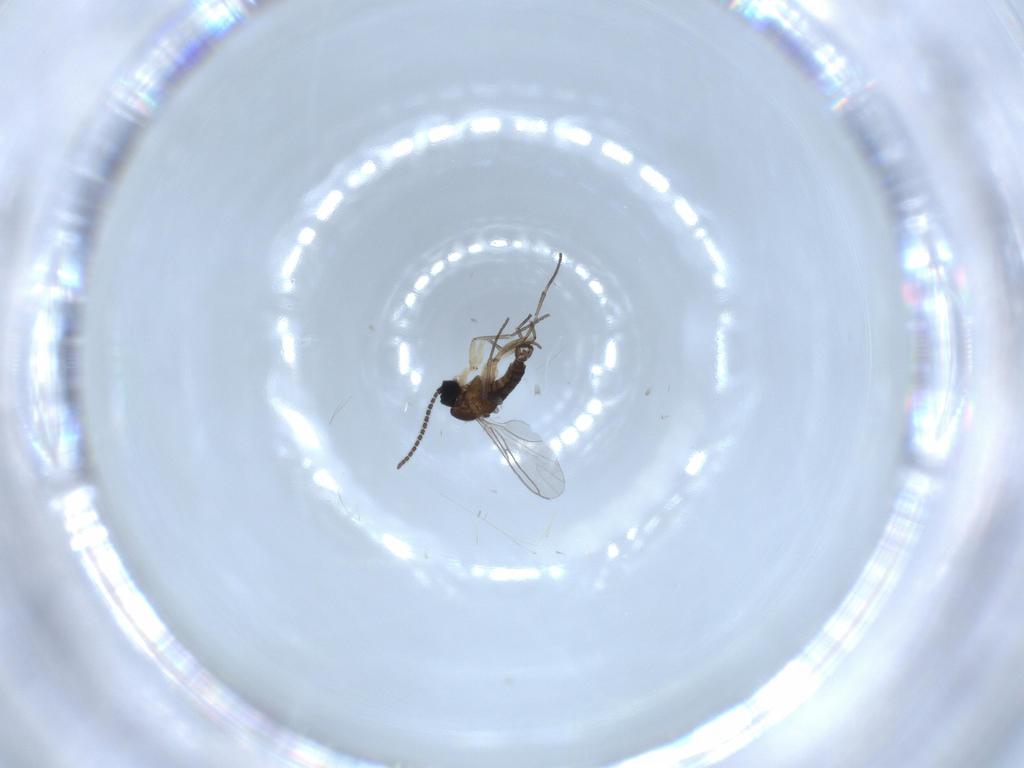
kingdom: Animalia
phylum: Arthropoda
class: Insecta
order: Diptera
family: Sciaridae
